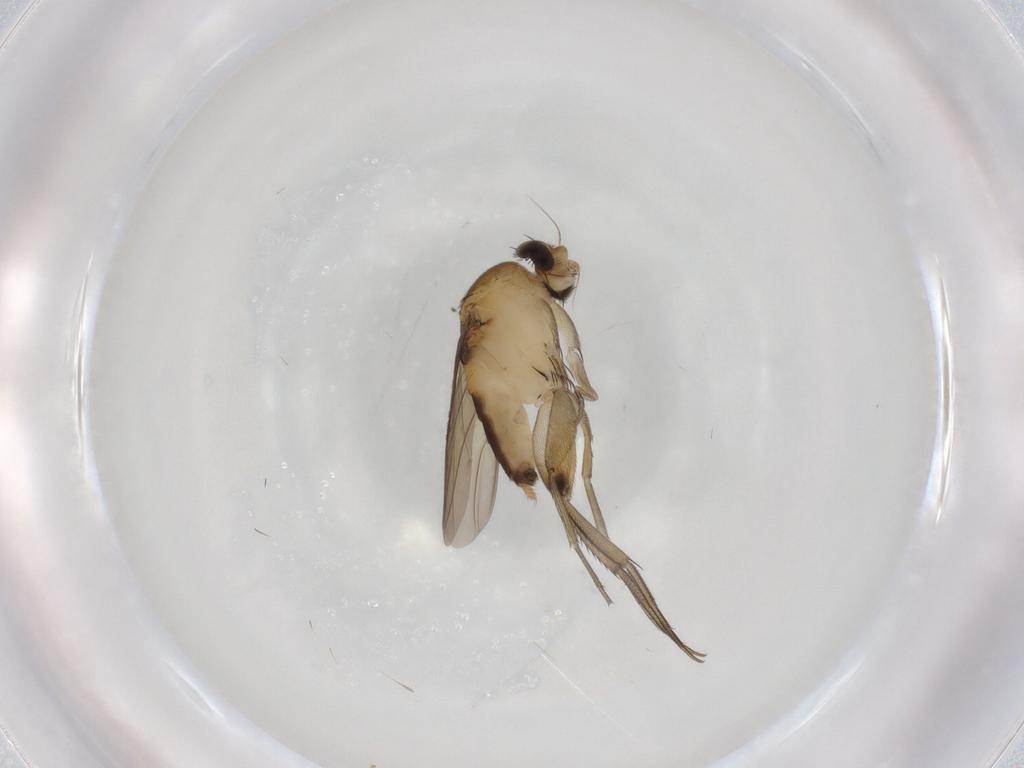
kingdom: Animalia
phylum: Arthropoda
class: Insecta
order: Diptera
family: Phoridae
